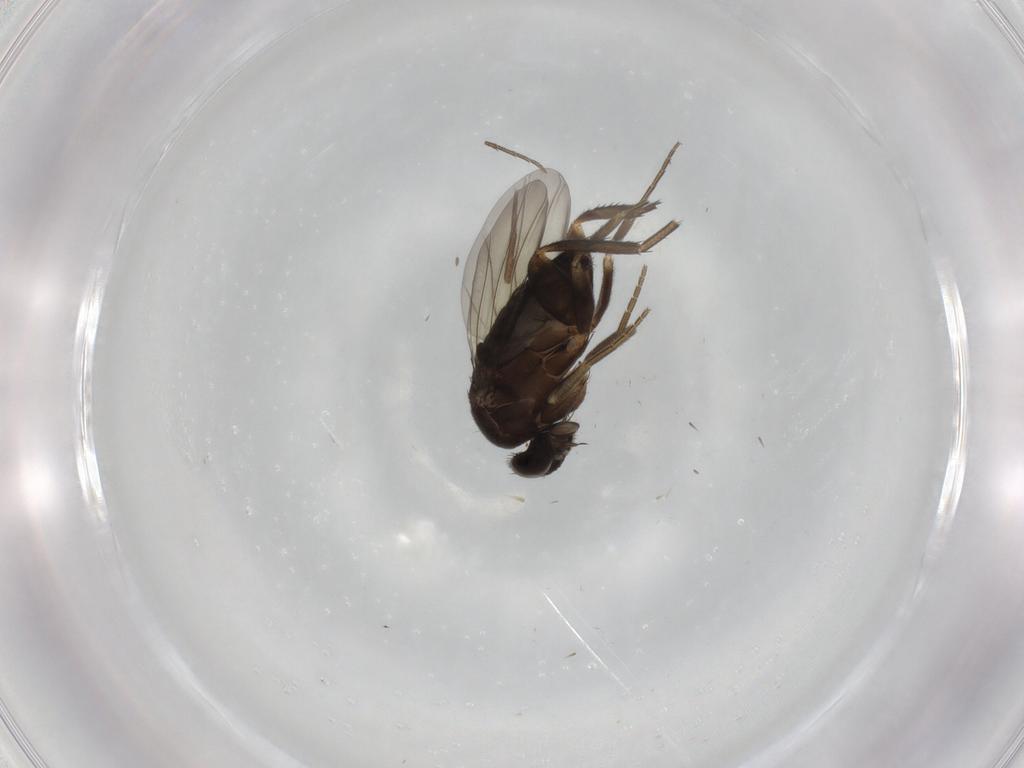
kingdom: Animalia
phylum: Arthropoda
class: Insecta
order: Diptera
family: Phoridae
